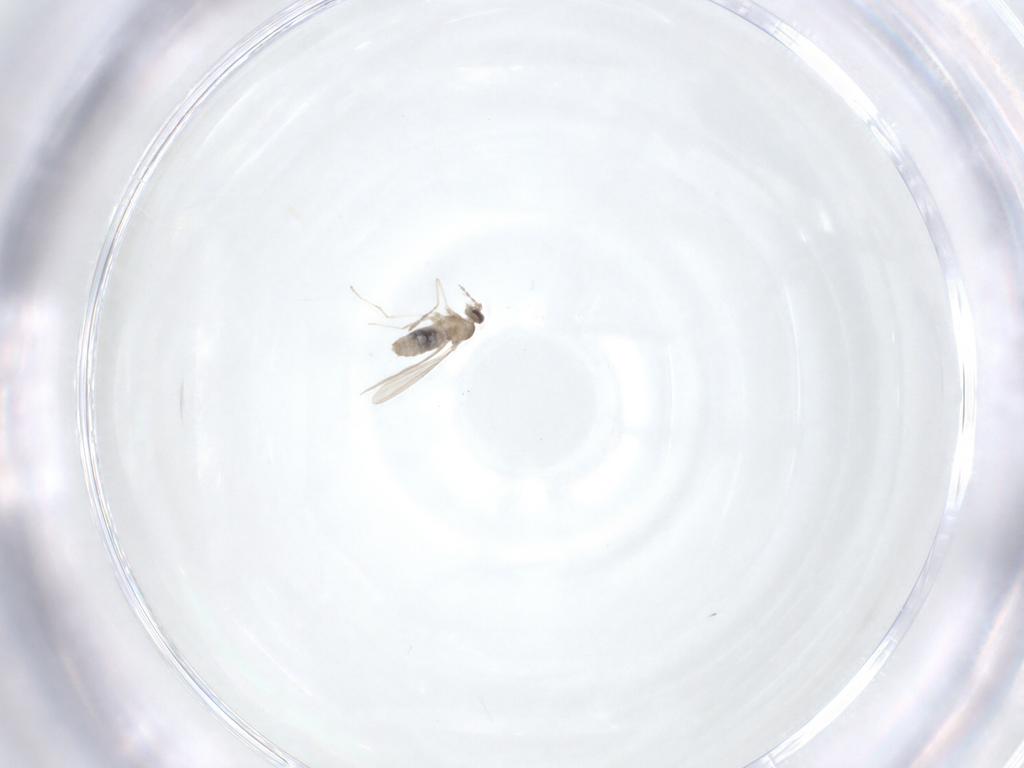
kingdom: Animalia
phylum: Arthropoda
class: Insecta
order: Diptera
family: Cecidomyiidae
